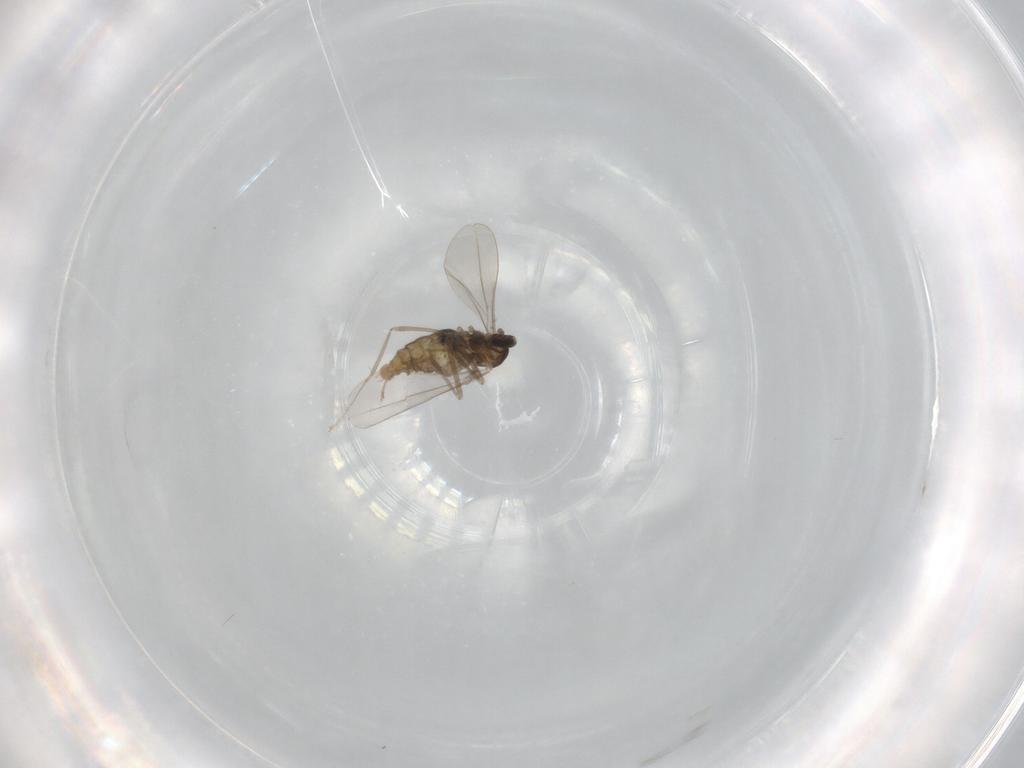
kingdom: Animalia
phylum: Arthropoda
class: Insecta
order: Diptera
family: Cecidomyiidae
